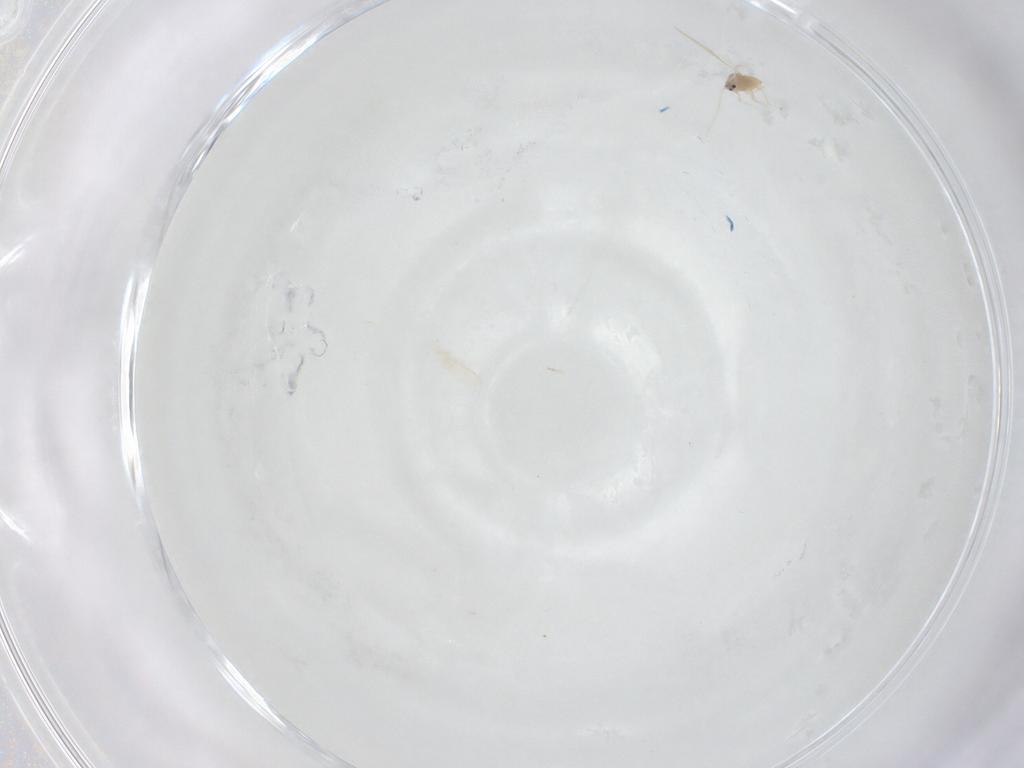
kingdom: Animalia
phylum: Arthropoda
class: Insecta
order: Hemiptera
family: Diaspididae
